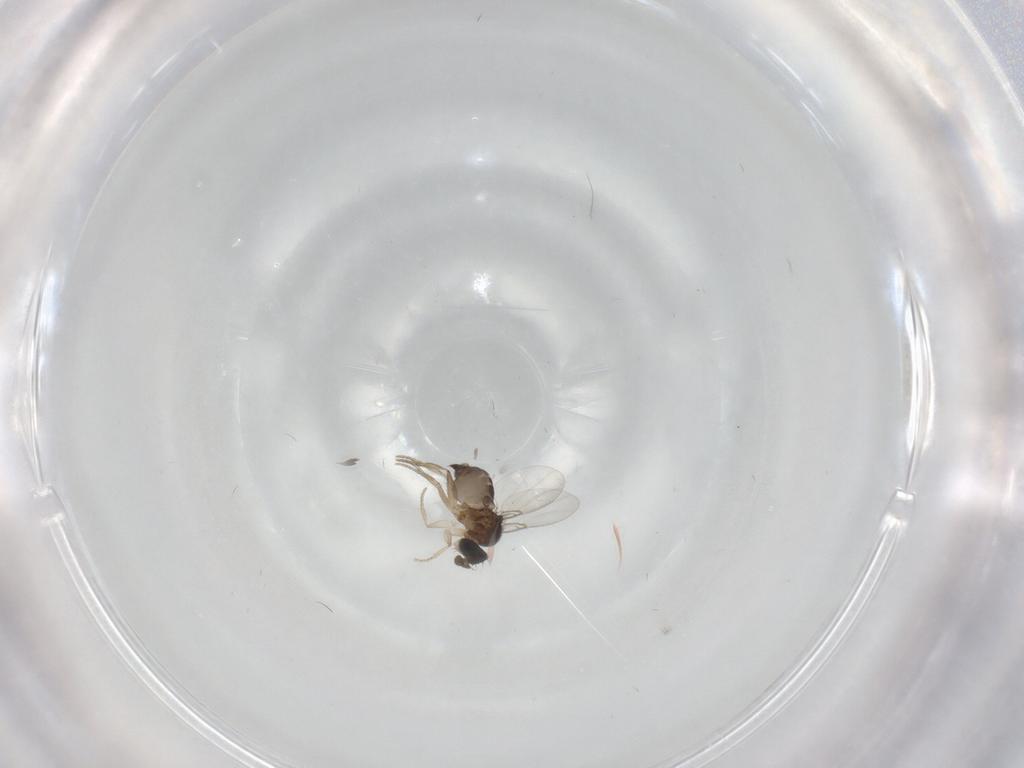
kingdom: Animalia
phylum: Arthropoda
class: Insecta
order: Diptera
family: Phoridae
